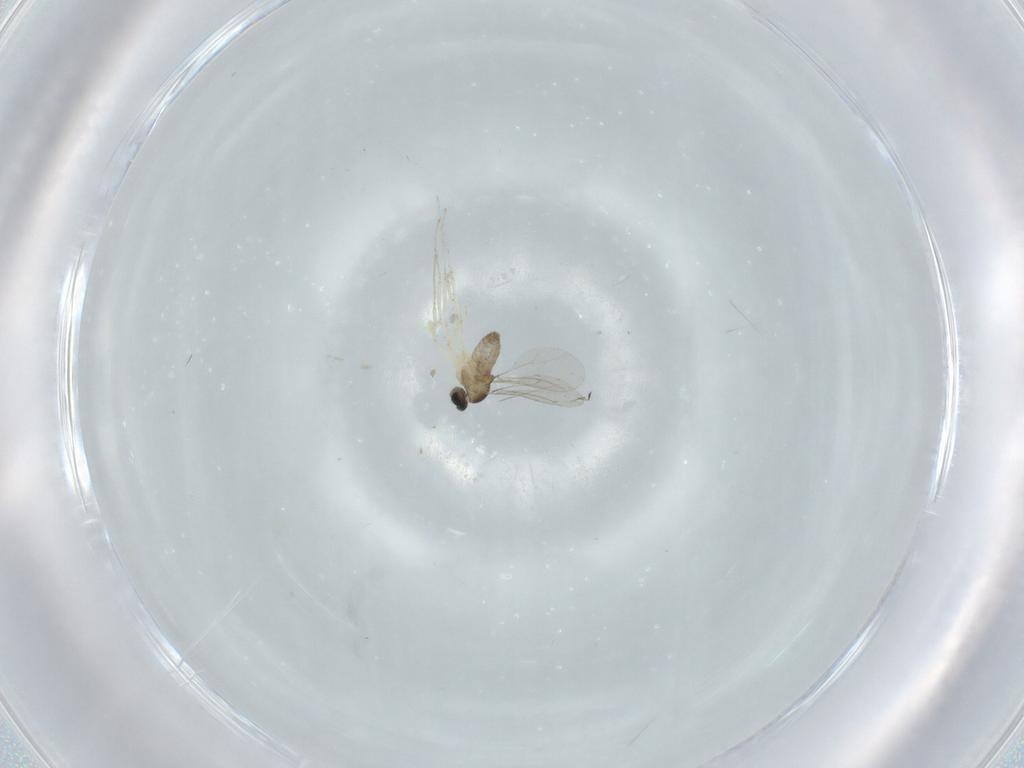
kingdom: Animalia
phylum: Arthropoda
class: Insecta
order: Diptera
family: Cecidomyiidae
